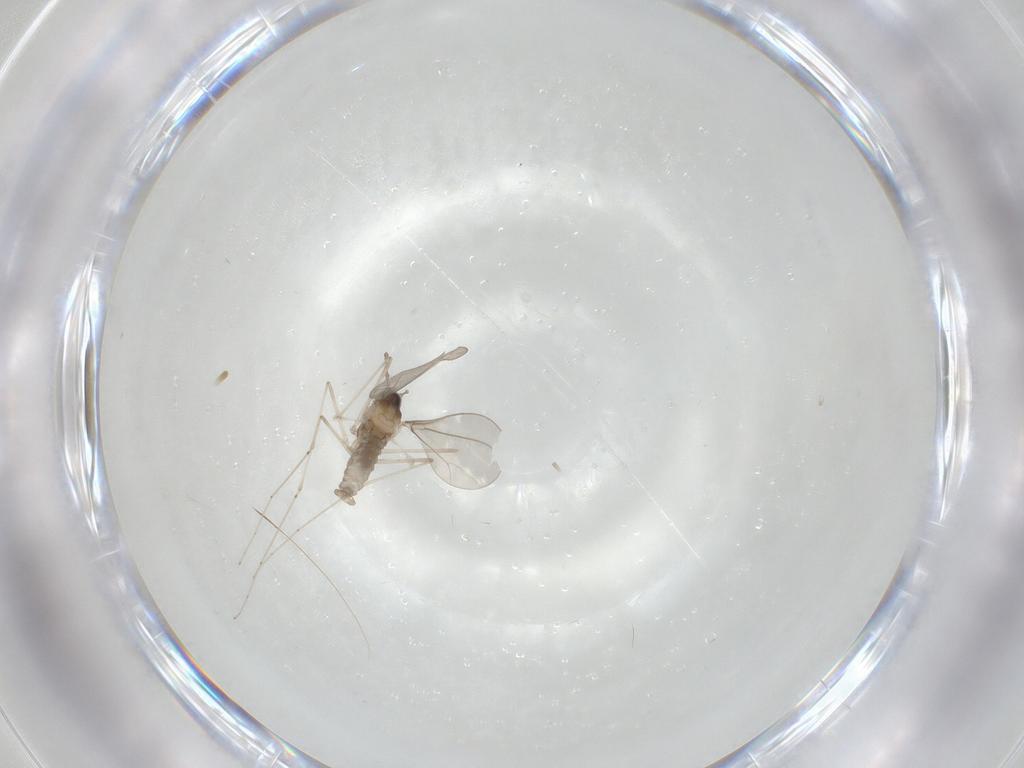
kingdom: Animalia
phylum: Arthropoda
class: Insecta
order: Diptera
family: Cecidomyiidae
